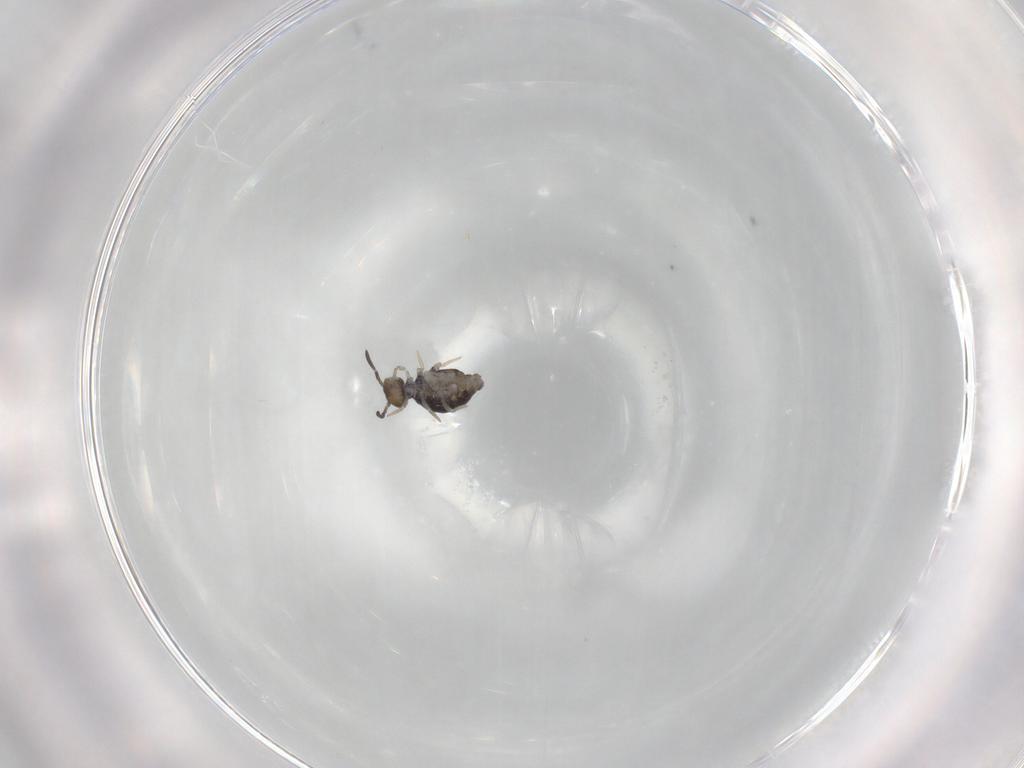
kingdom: Animalia
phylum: Arthropoda
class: Collembola
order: Symphypleona
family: Katiannidae
